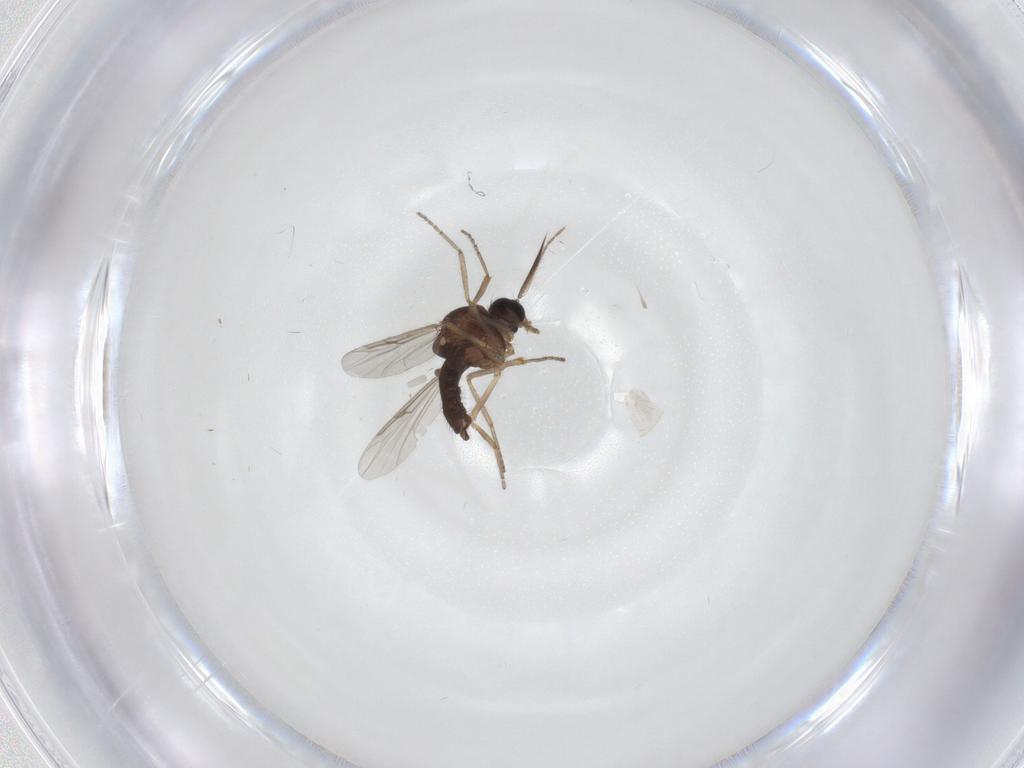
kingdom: Animalia
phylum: Arthropoda
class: Insecta
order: Diptera
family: Ceratopogonidae
